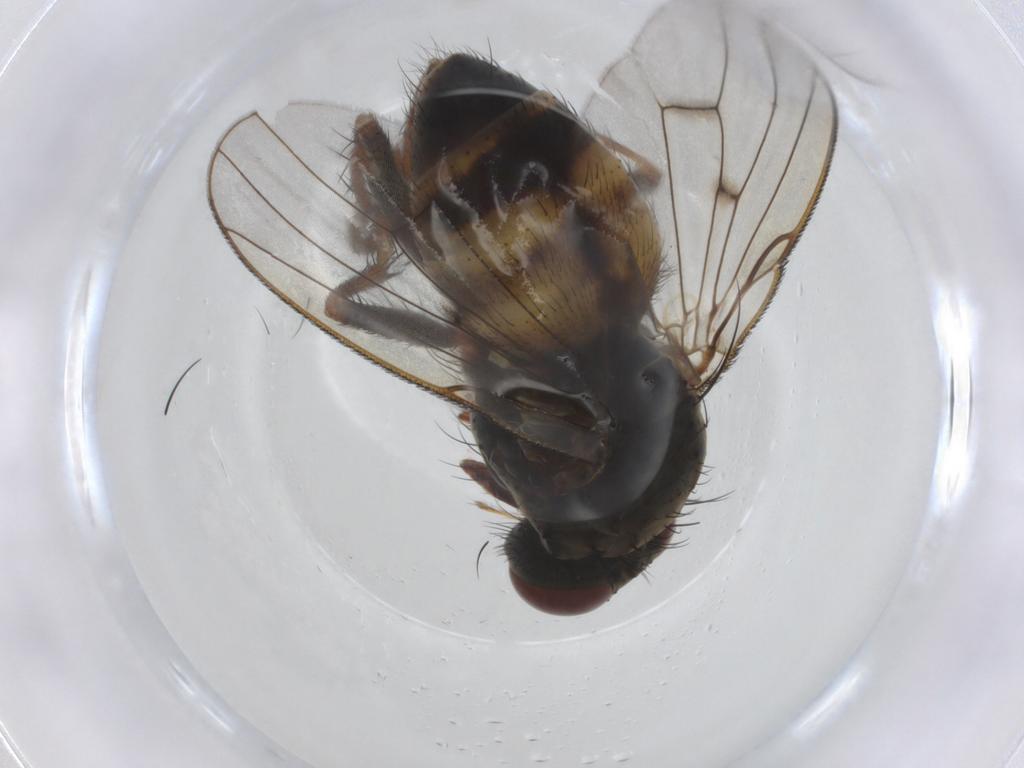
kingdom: Animalia
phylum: Arthropoda
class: Insecta
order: Diptera
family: Muscidae
